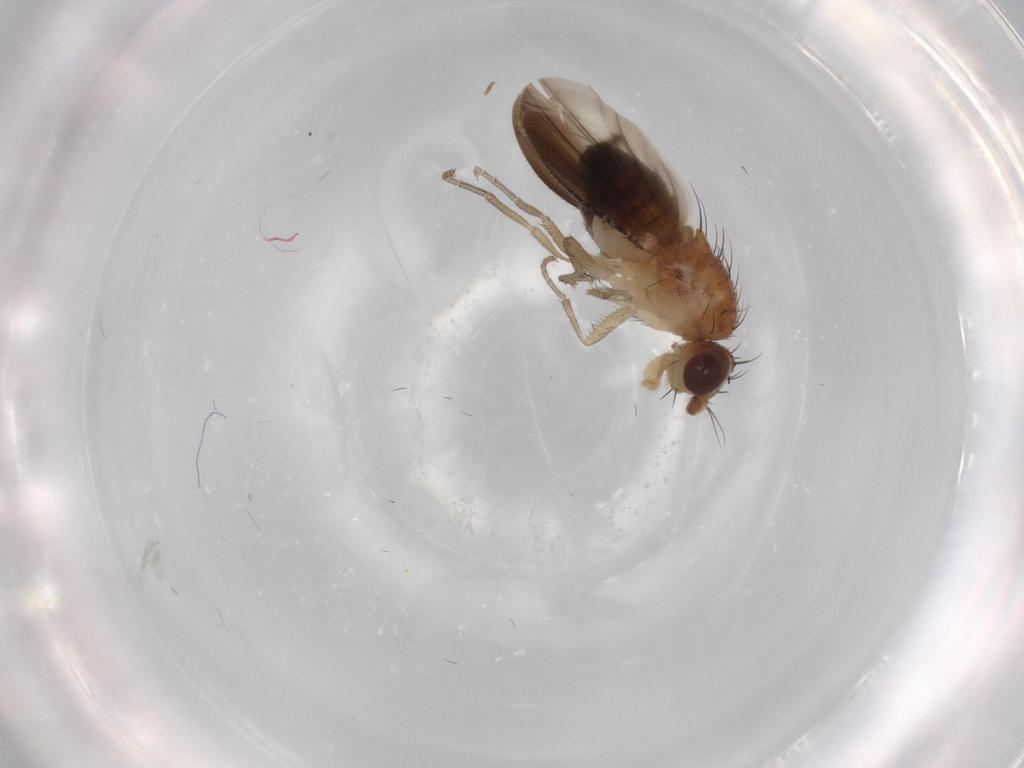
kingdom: Animalia
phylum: Arthropoda
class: Insecta
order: Diptera
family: Heleomyzidae
